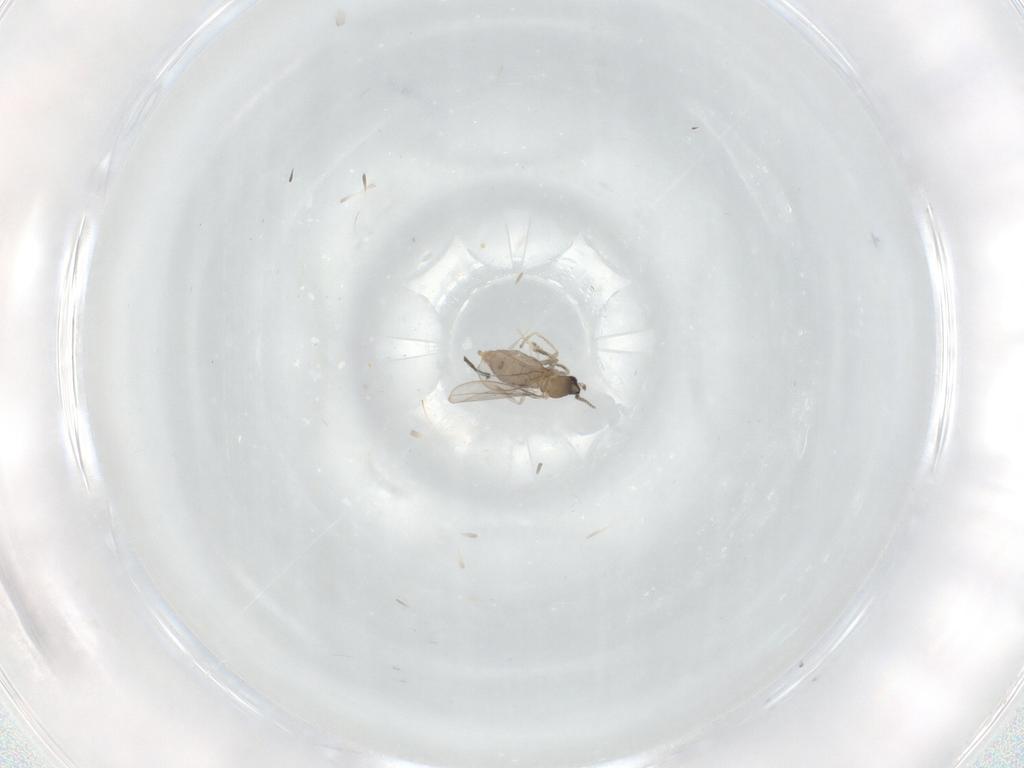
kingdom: Animalia
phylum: Arthropoda
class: Insecta
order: Diptera
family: Cecidomyiidae
